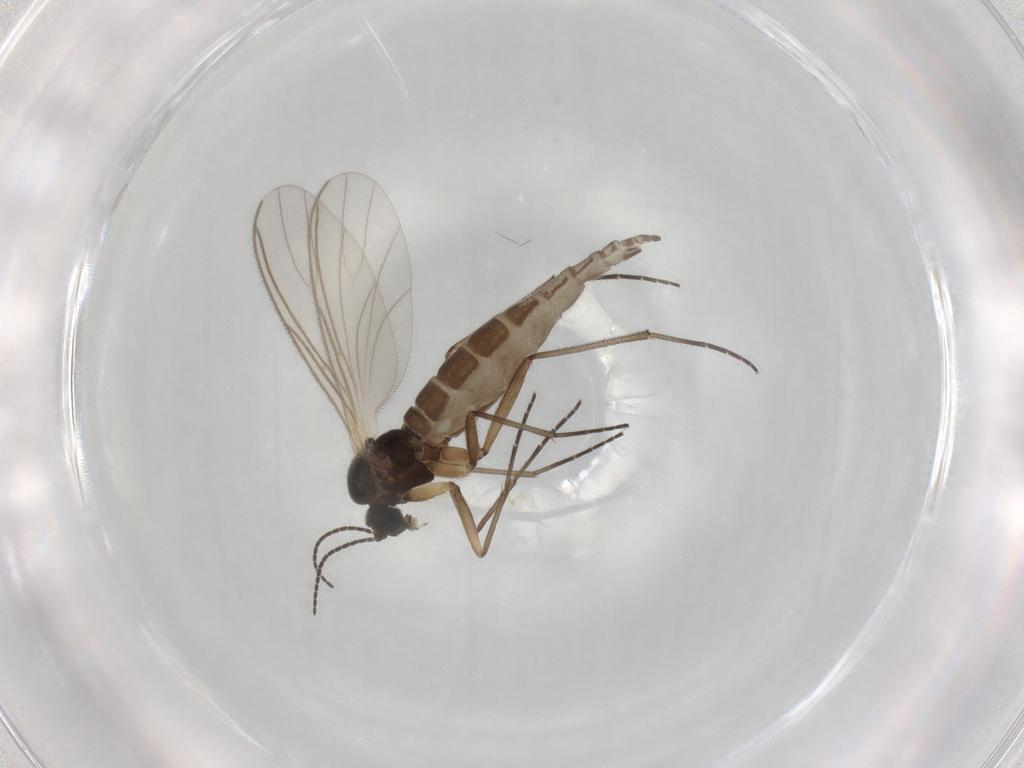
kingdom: Animalia
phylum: Arthropoda
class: Insecta
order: Diptera
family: Sciaridae
